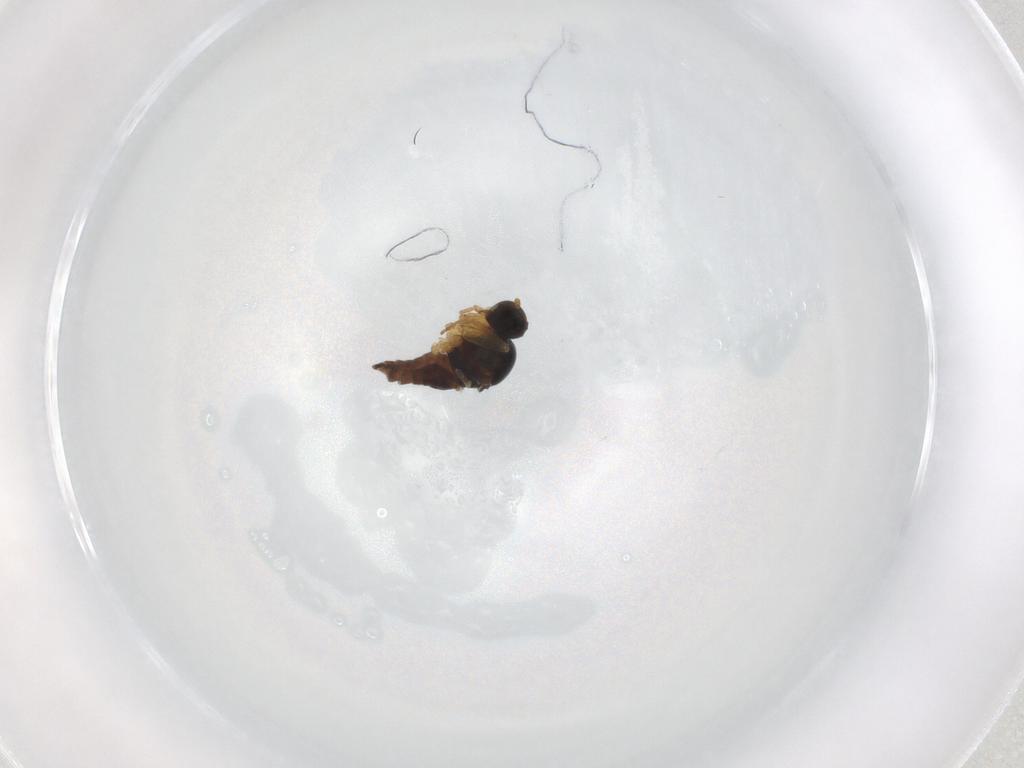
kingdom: Animalia
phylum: Arthropoda
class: Insecta
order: Diptera
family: Hybotidae
